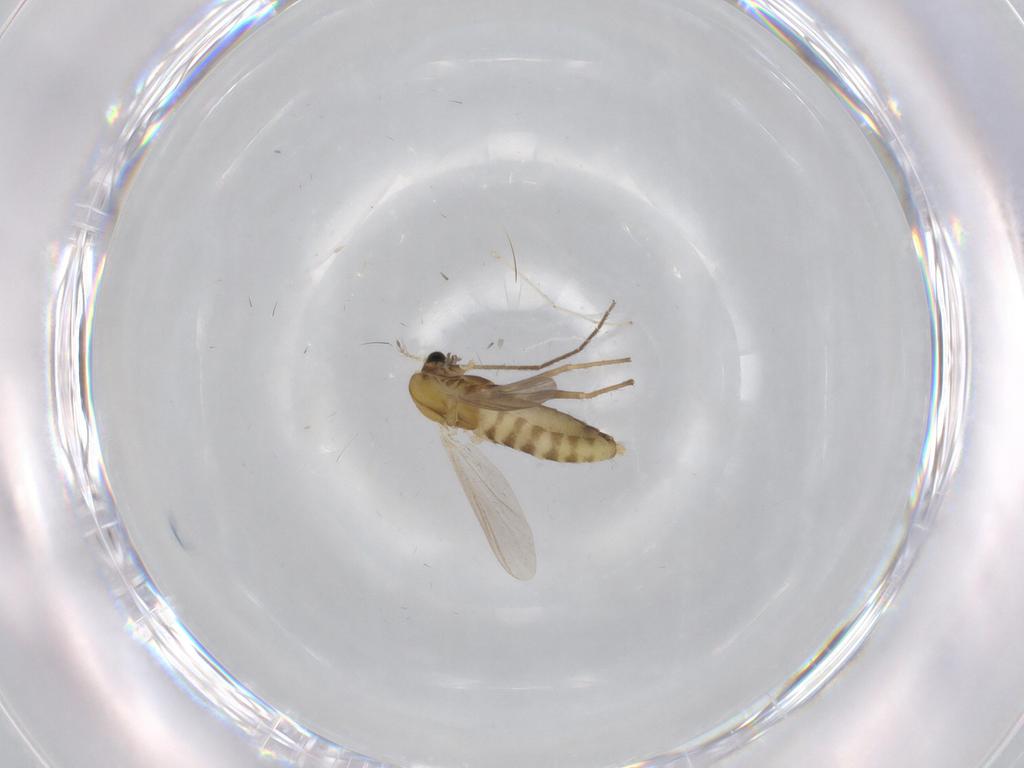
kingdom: Animalia
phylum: Arthropoda
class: Insecta
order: Diptera
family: Chironomidae
